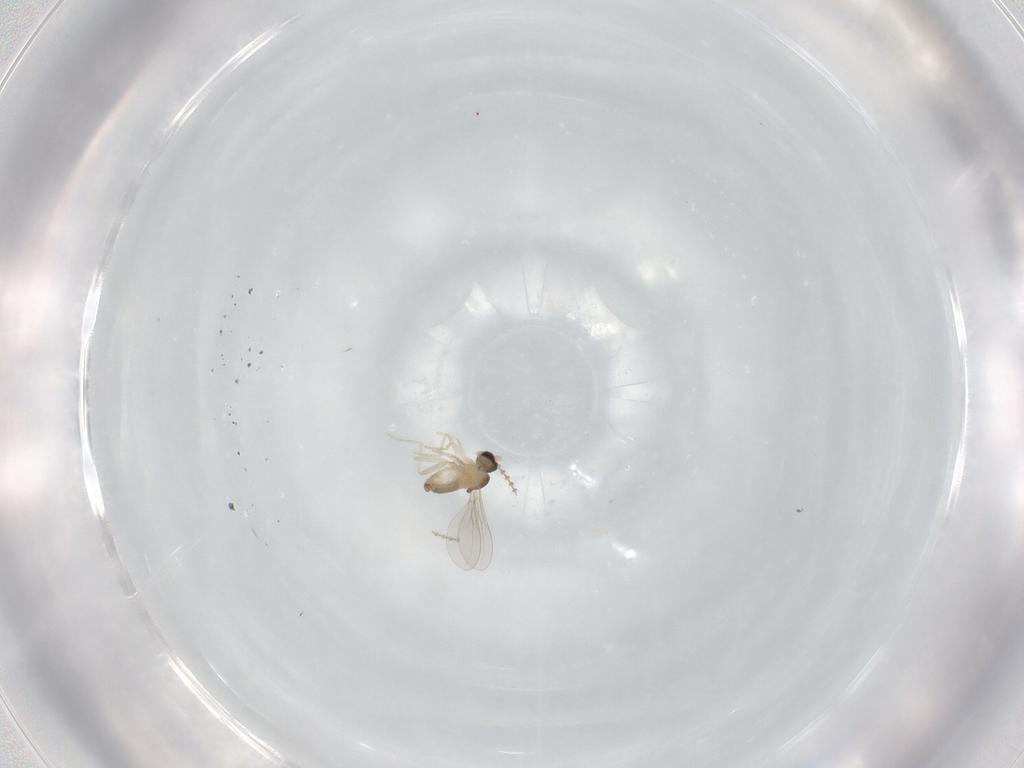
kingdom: Animalia
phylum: Arthropoda
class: Insecta
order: Diptera
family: Cecidomyiidae
